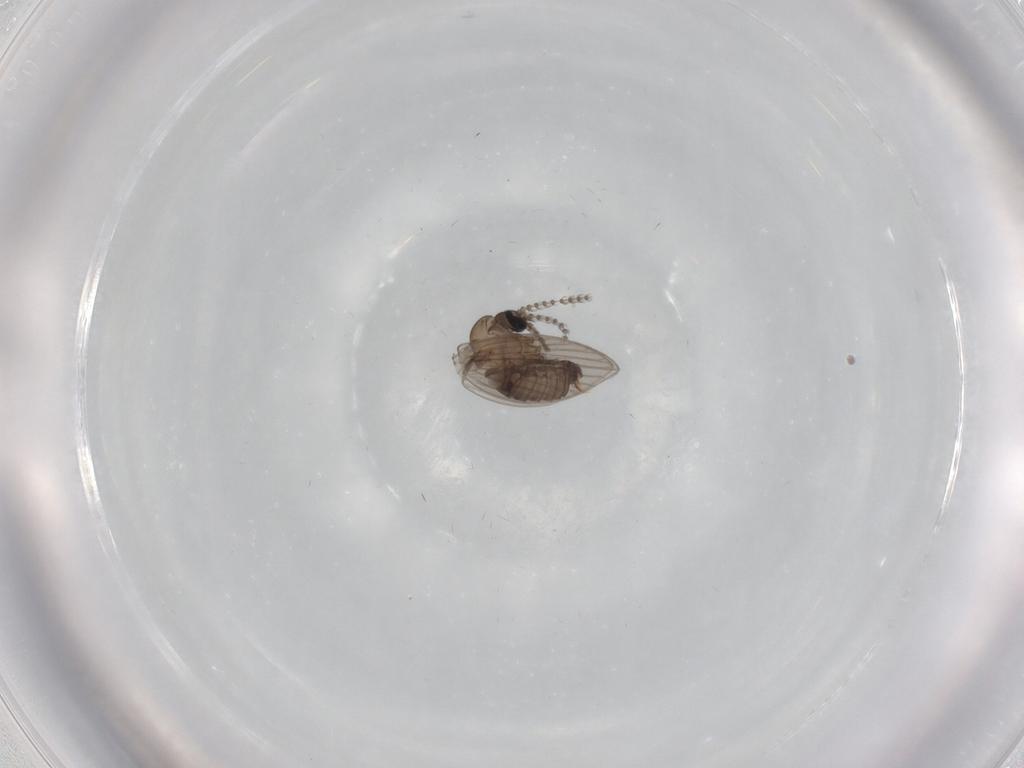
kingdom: Animalia
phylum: Arthropoda
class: Insecta
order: Diptera
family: Psychodidae
